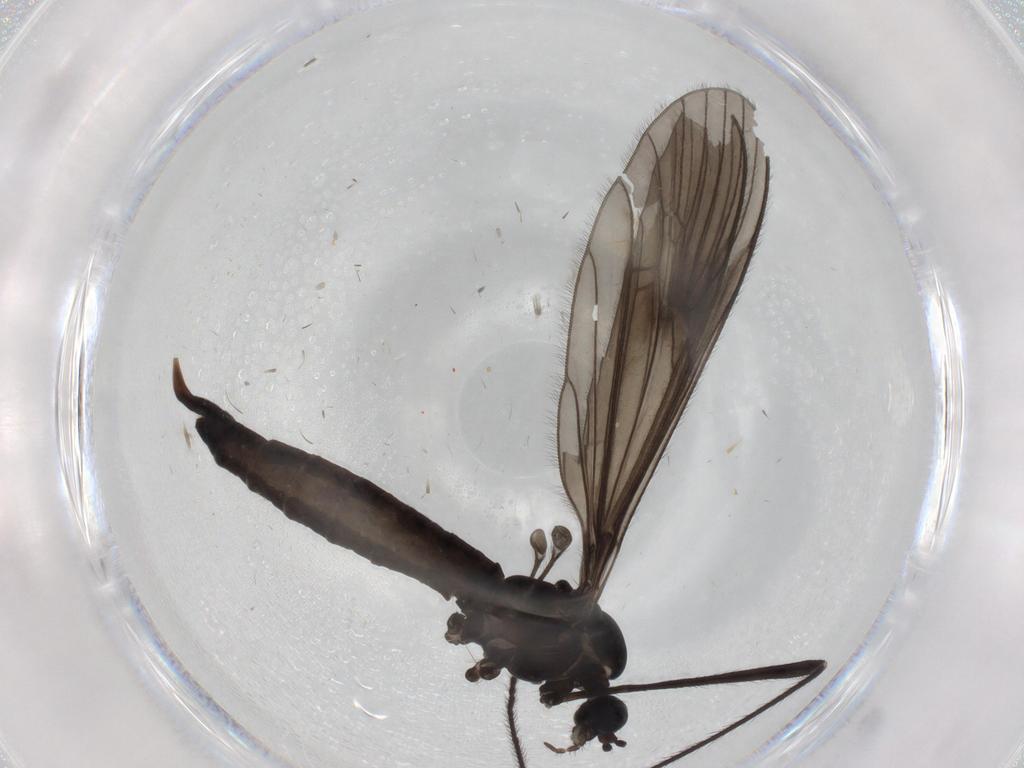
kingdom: Animalia
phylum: Arthropoda
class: Insecta
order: Diptera
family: Limoniidae
